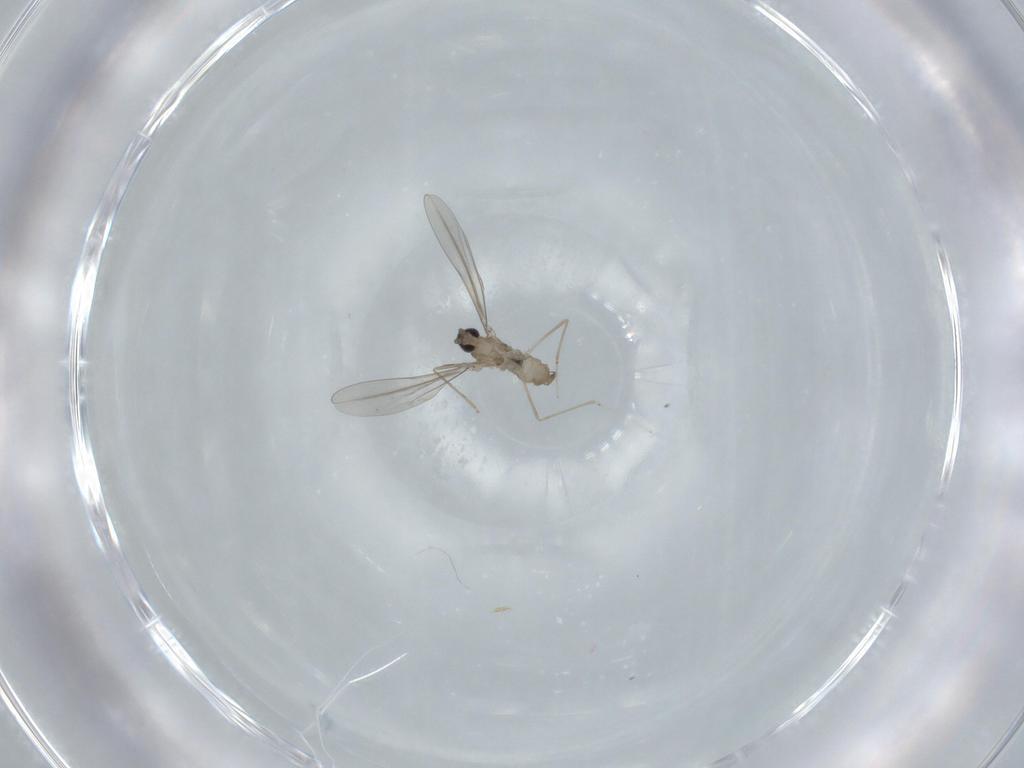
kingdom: Animalia
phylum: Arthropoda
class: Insecta
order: Diptera
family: Cecidomyiidae
